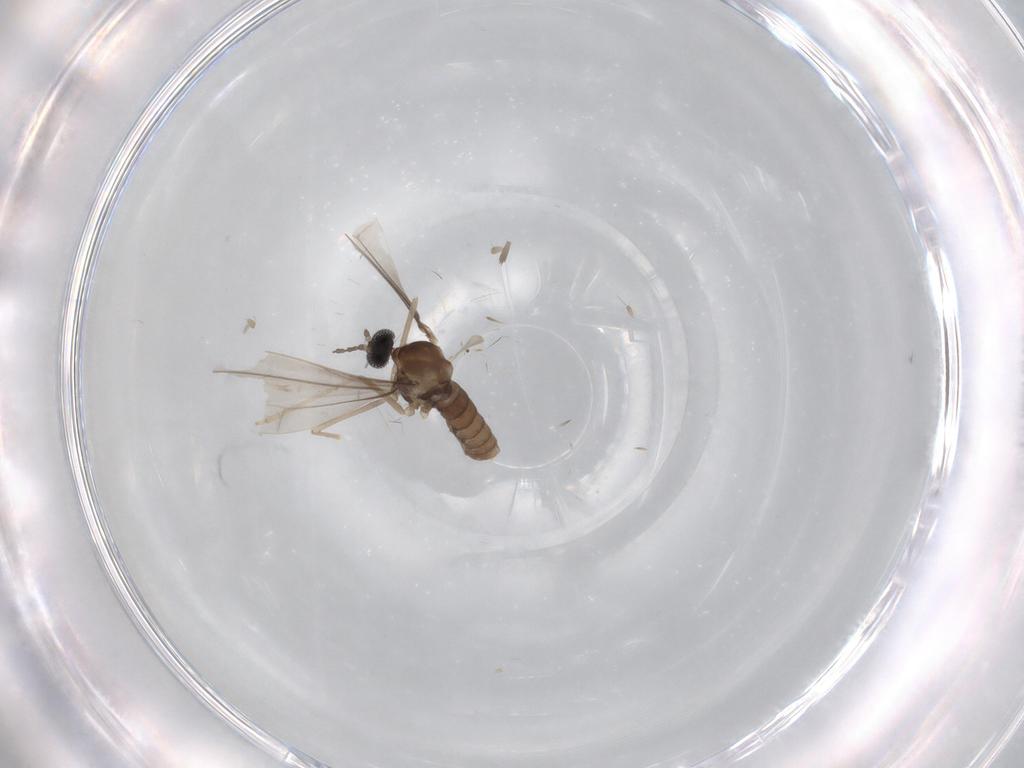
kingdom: Animalia
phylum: Arthropoda
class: Insecta
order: Diptera
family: Cecidomyiidae
